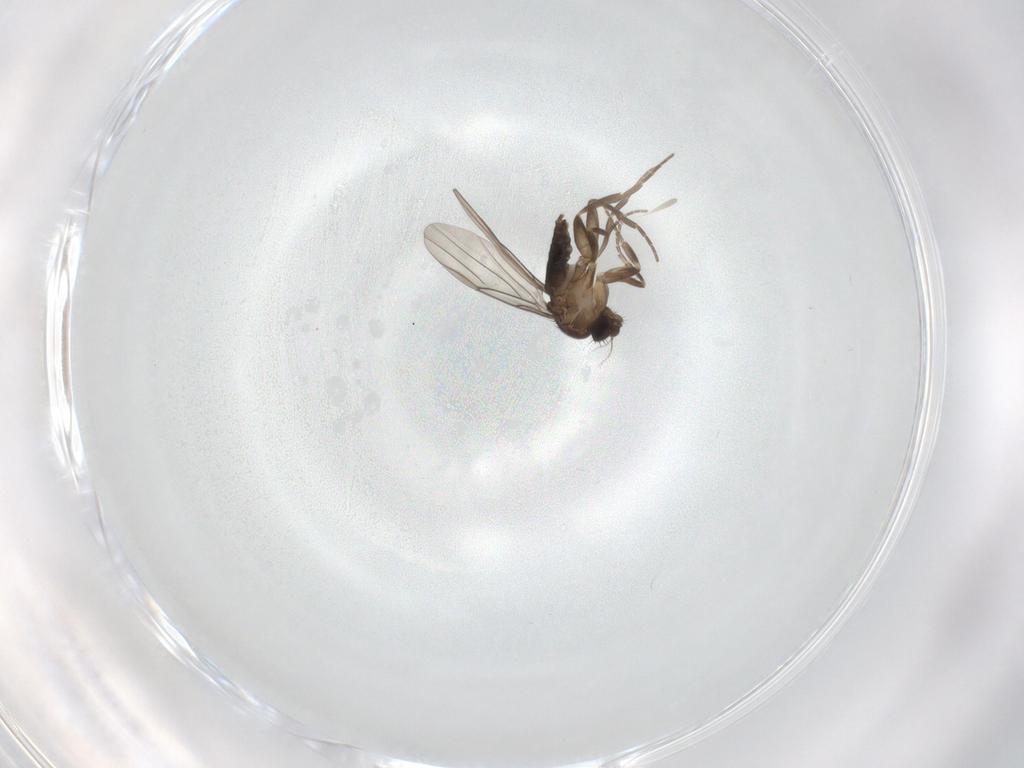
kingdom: Animalia
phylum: Arthropoda
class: Insecta
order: Diptera
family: Phoridae
